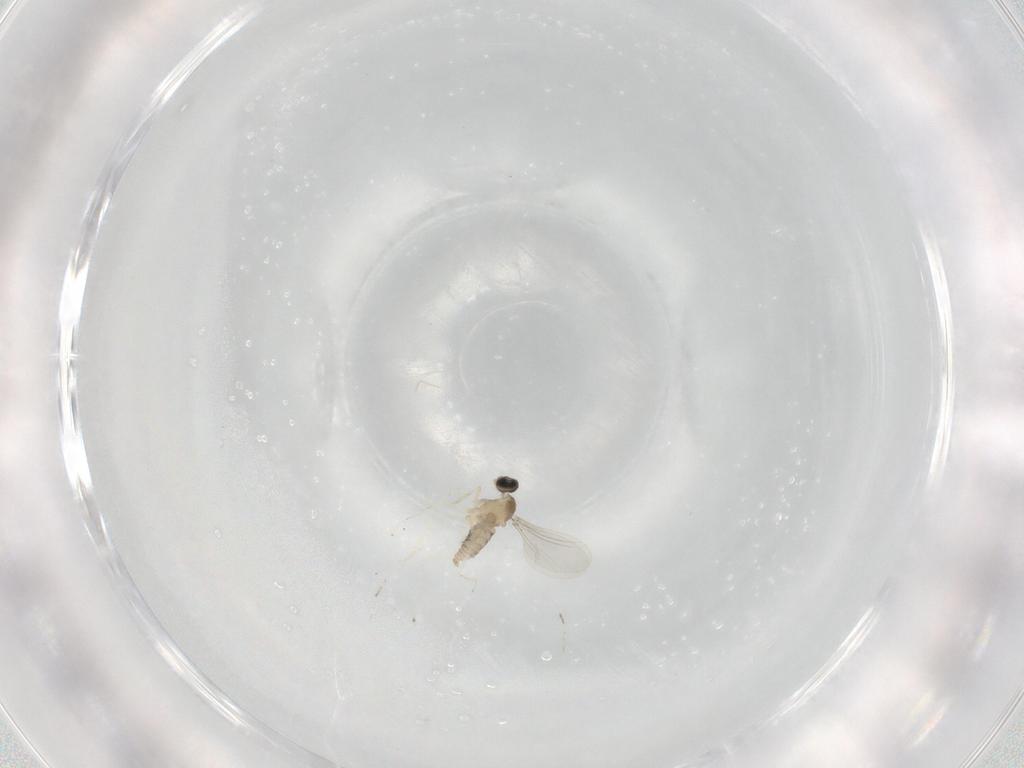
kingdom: Animalia
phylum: Arthropoda
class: Insecta
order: Diptera
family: Cecidomyiidae
